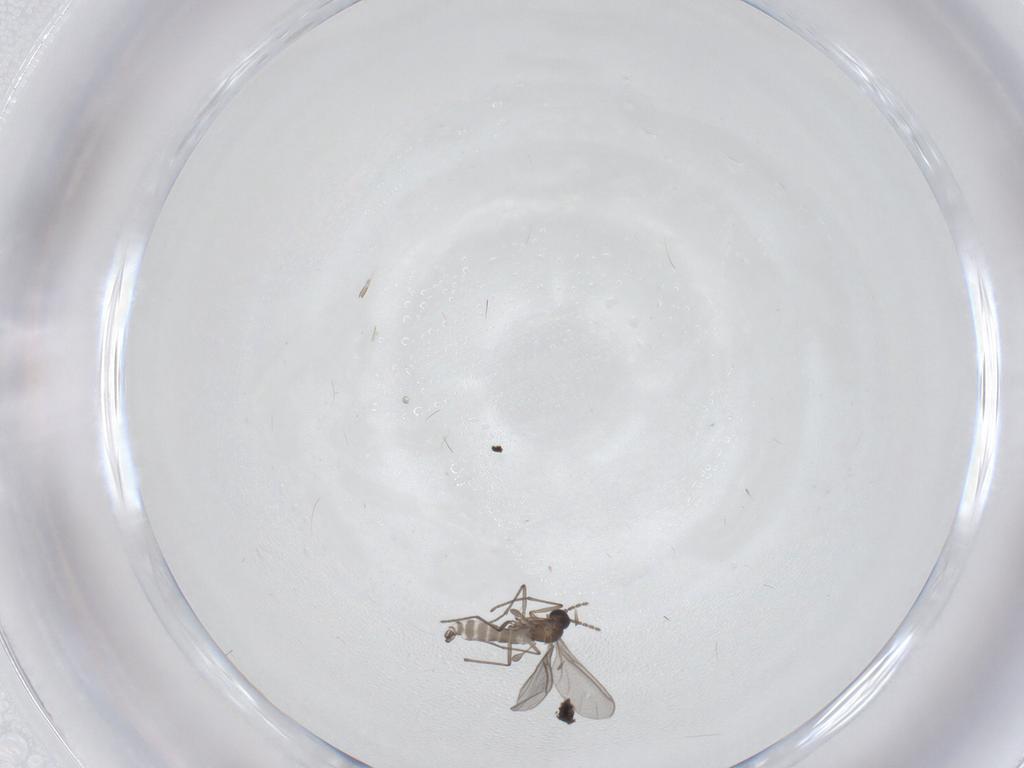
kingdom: Animalia
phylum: Arthropoda
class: Insecta
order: Diptera
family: Sciaridae
